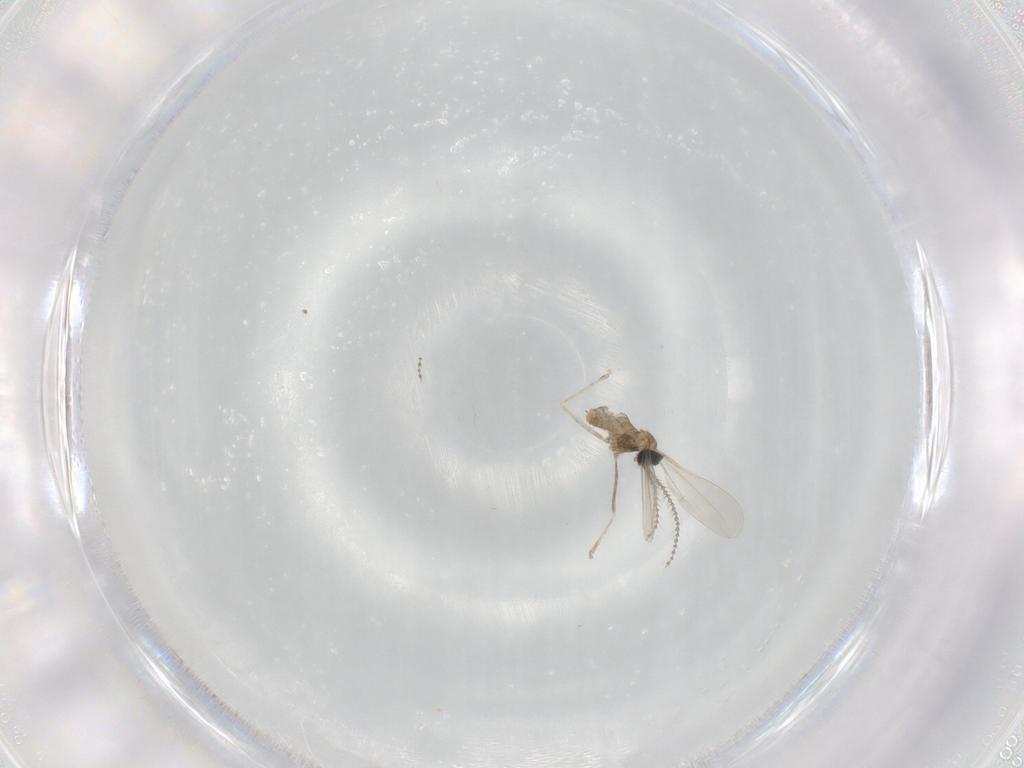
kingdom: Animalia
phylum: Arthropoda
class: Insecta
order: Diptera
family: Ceratopogonidae
